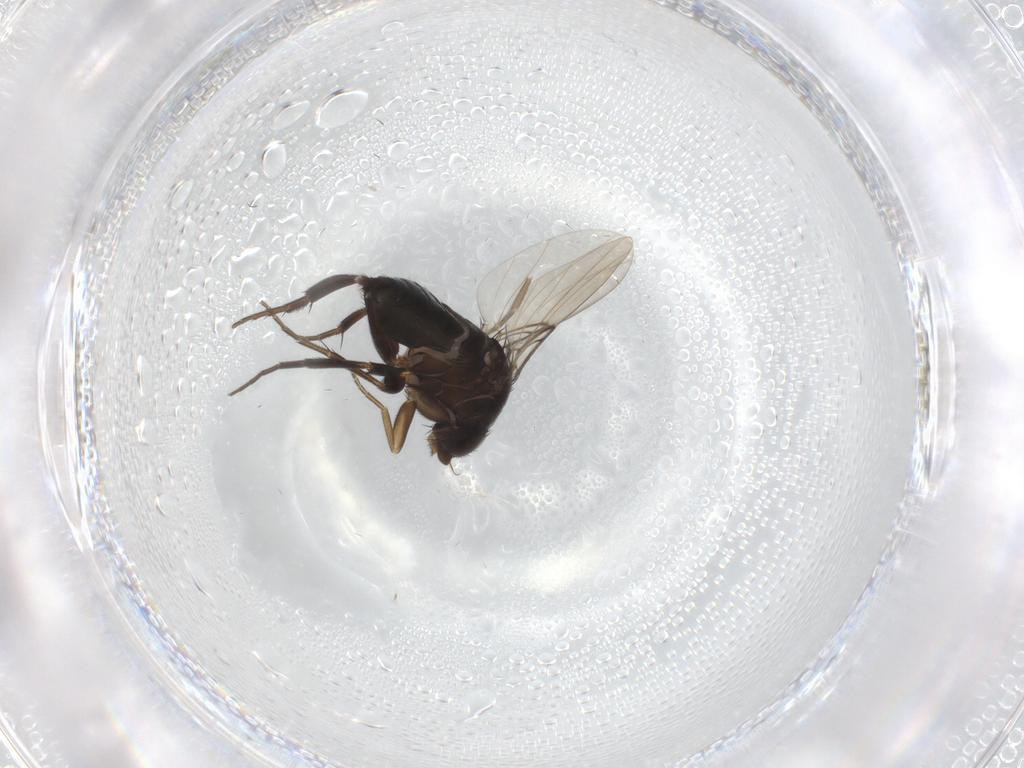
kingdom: Animalia
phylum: Arthropoda
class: Insecta
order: Diptera
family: Phoridae
